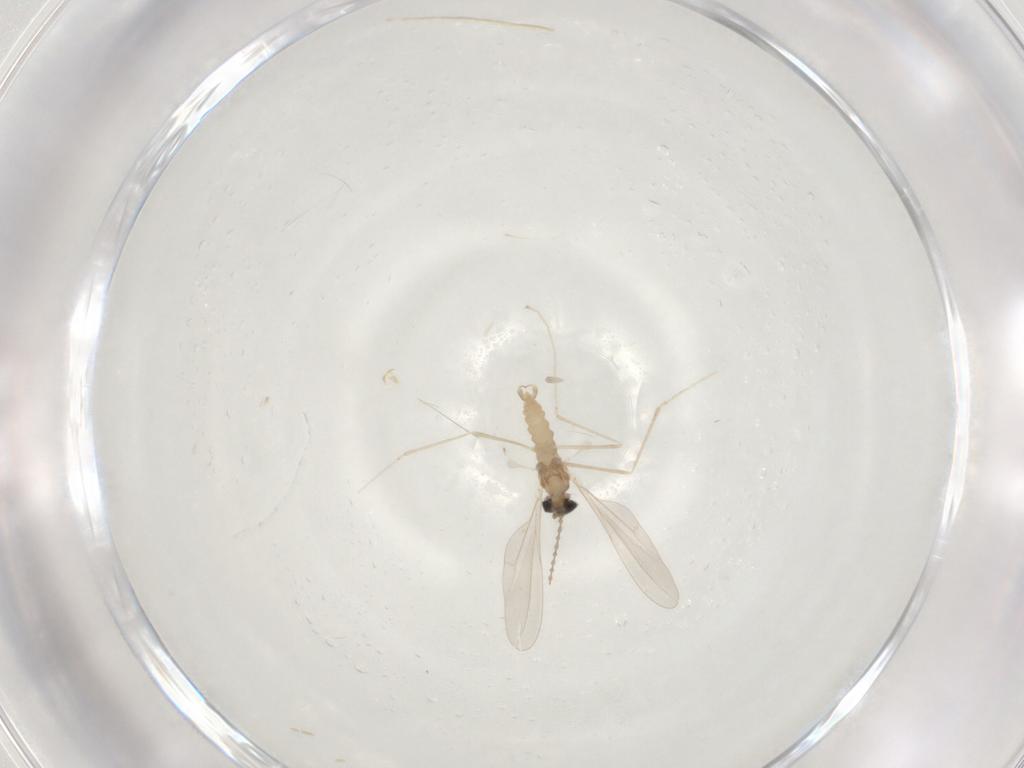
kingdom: Animalia
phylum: Arthropoda
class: Insecta
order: Diptera
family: Cecidomyiidae
